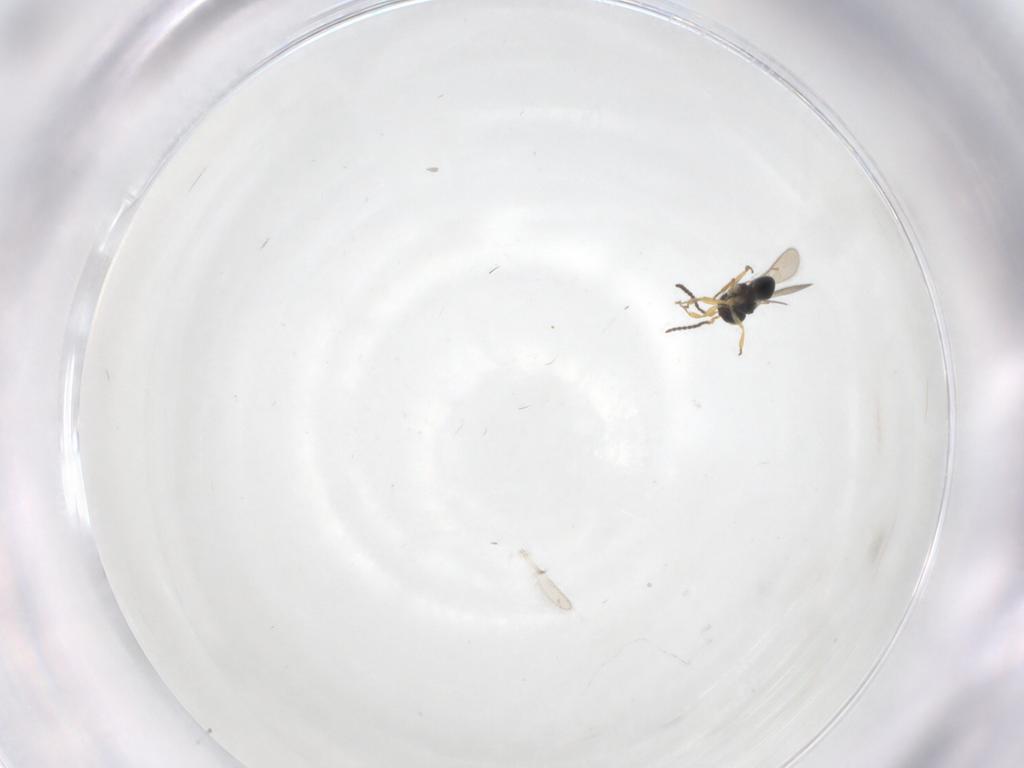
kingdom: Animalia
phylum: Arthropoda
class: Insecta
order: Hymenoptera
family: Scelionidae
